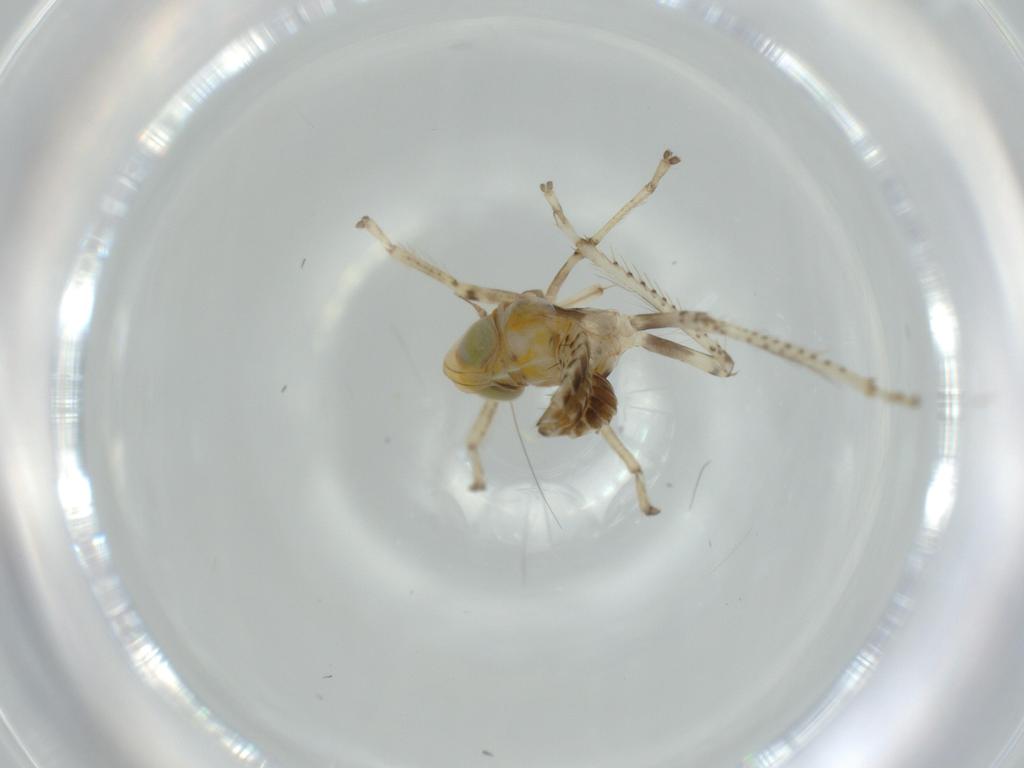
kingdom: Animalia
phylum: Arthropoda
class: Insecta
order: Hemiptera
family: Cicadellidae
